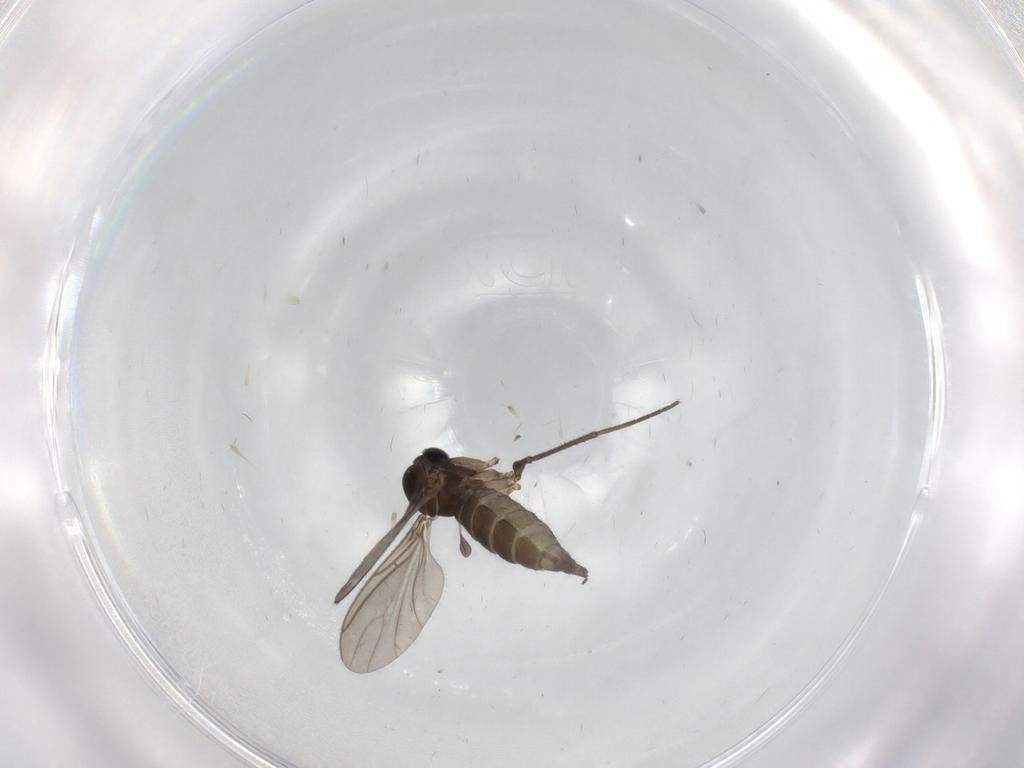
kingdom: Animalia
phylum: Arthropoda
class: Insecta
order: Diptera
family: Sciaridae
